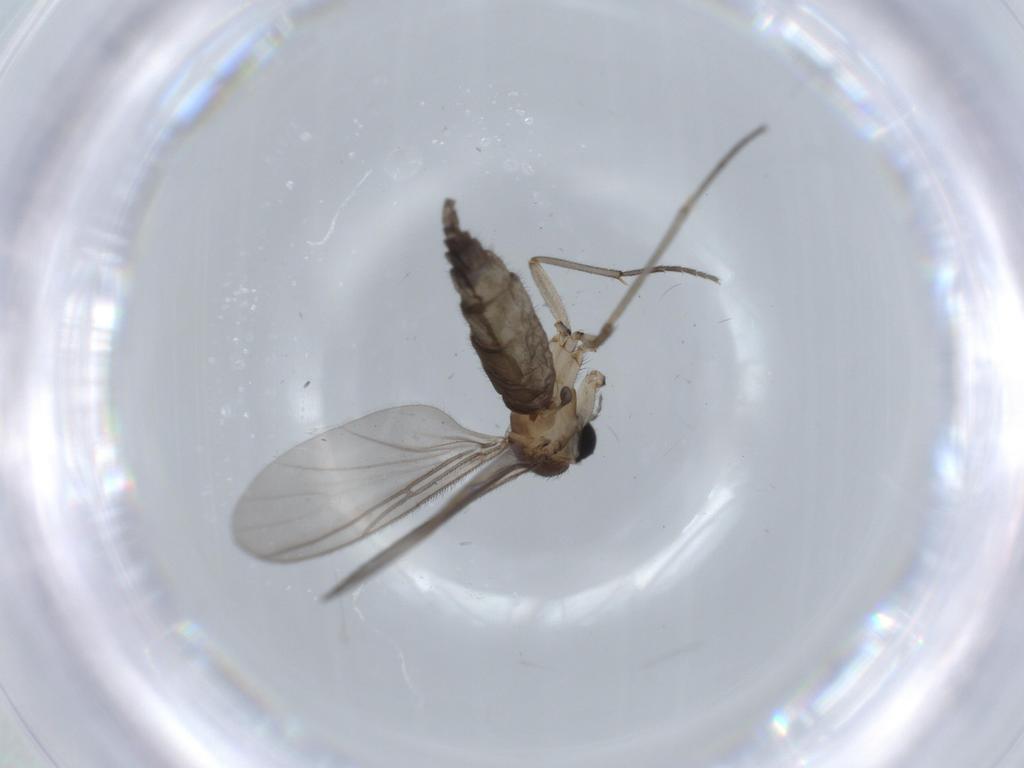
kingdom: Animalia
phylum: Arthropoda
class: Insecta
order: Diptera
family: Sciaridae
